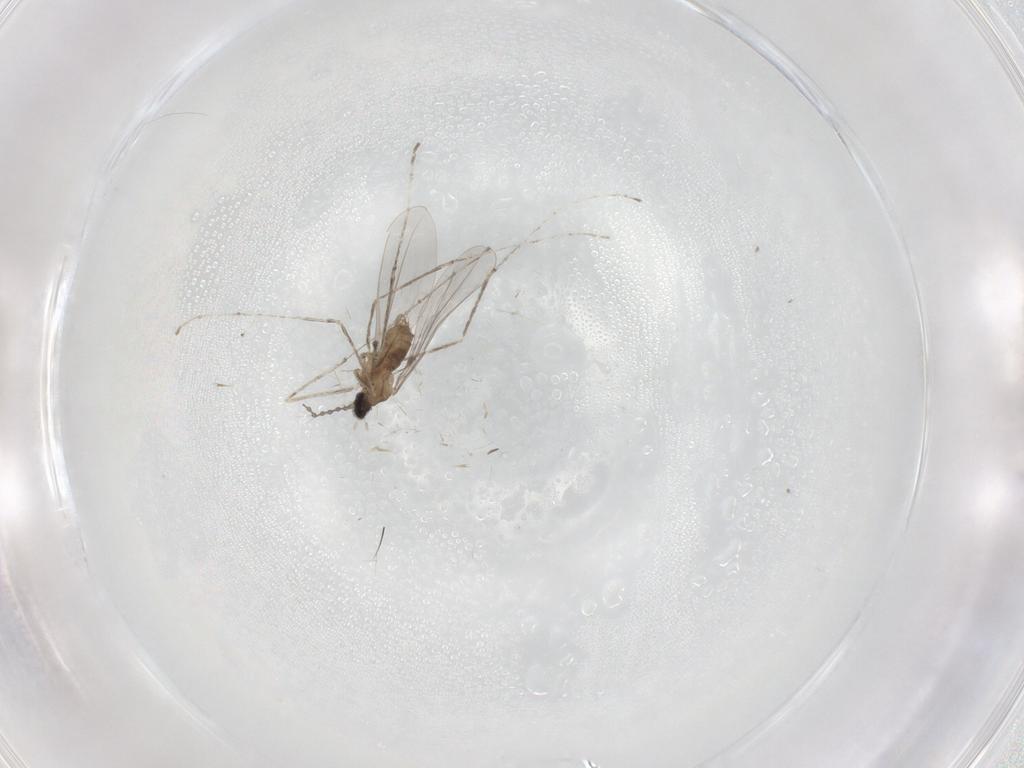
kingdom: Animalia
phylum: Arthropoda
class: Insecta
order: Diptera
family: Cecidomyiidae
